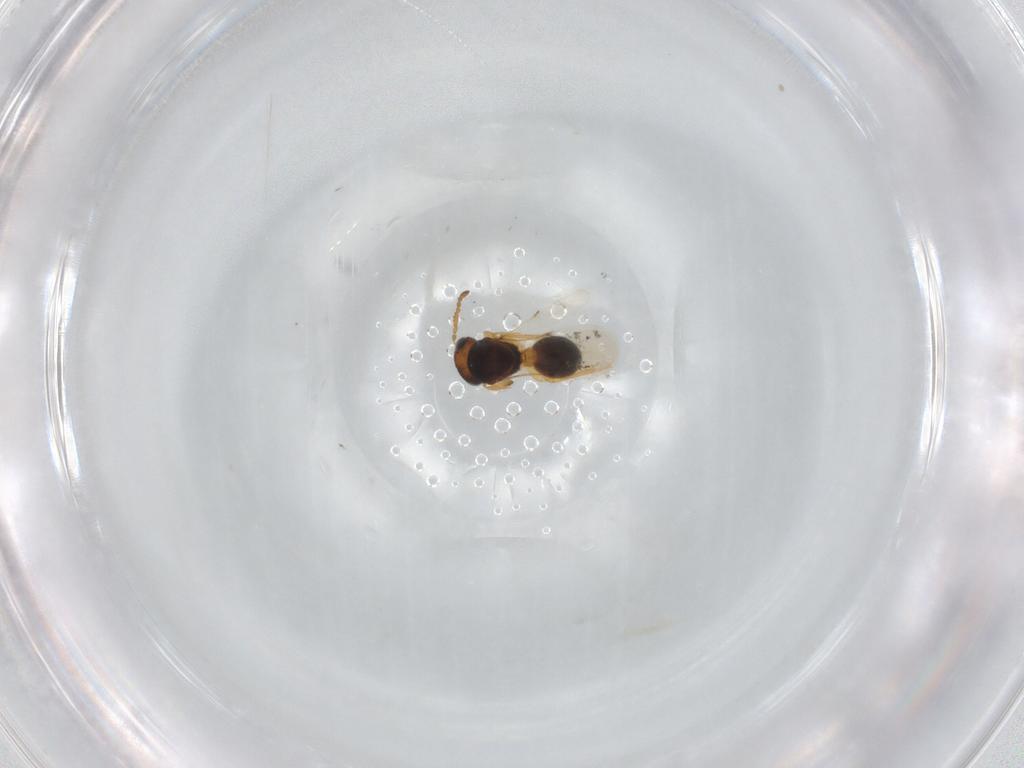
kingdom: Animalia
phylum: Arthropoda
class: Insecta
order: Hymenoptera
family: Scelionidae
